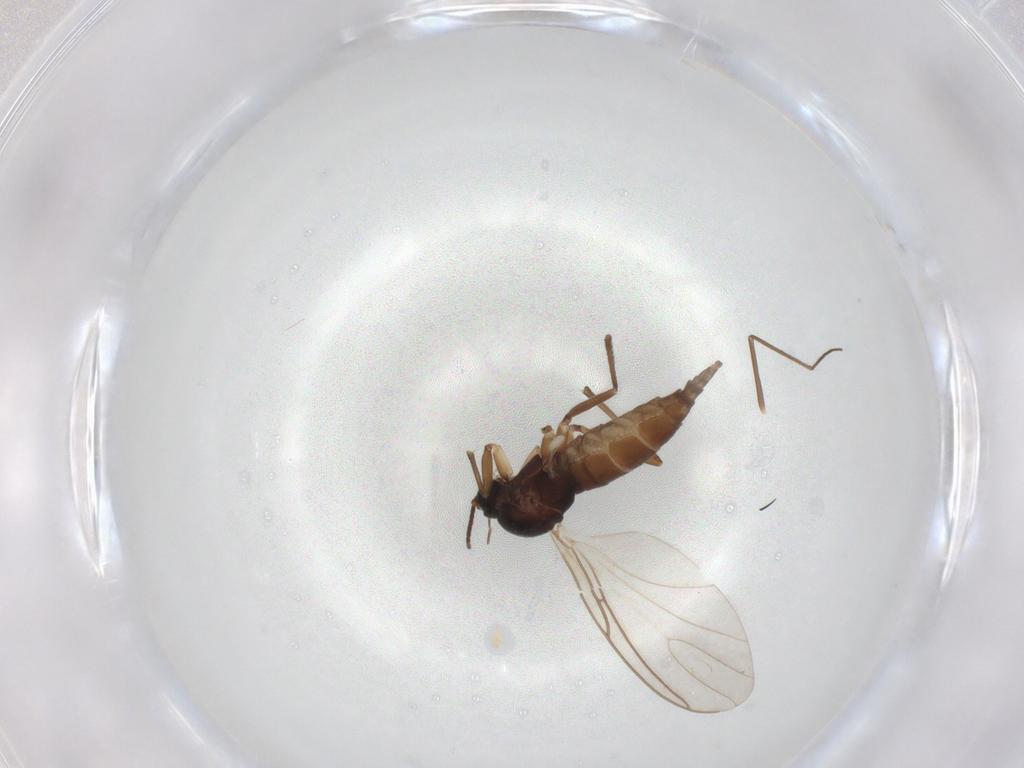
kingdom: Animalia
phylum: Arthropoda
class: Insecta
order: Diptera
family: Sciaridae
